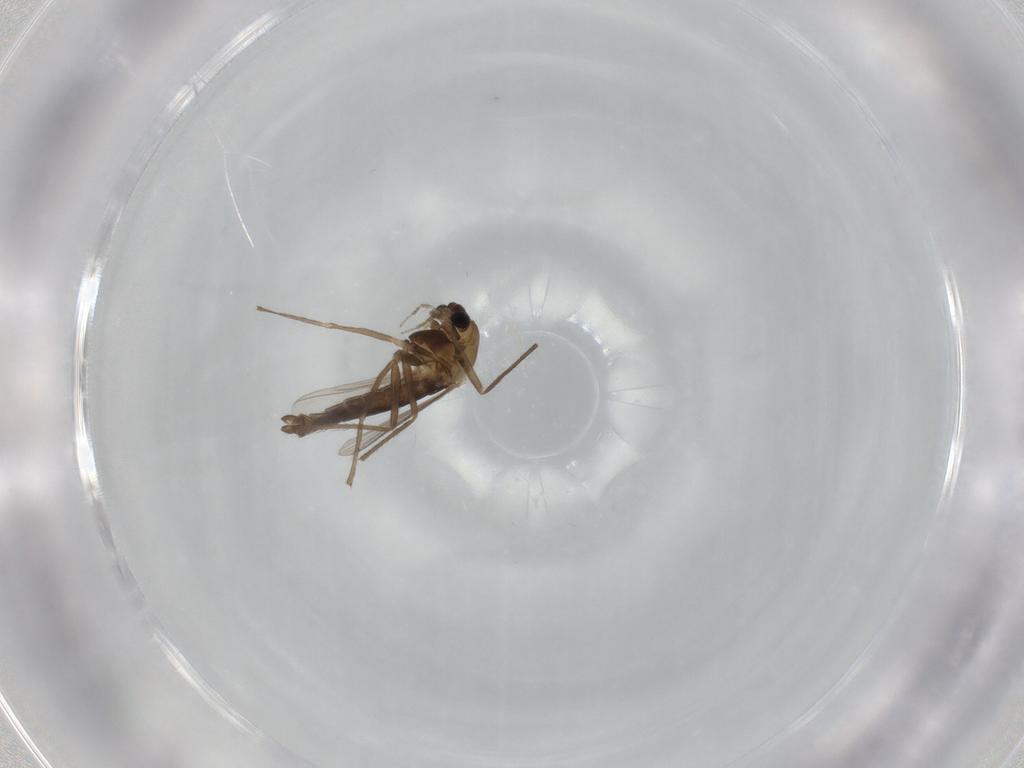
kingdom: Animalia
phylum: Arthropoda
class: Insecta
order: Diptera
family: Chironomidae
